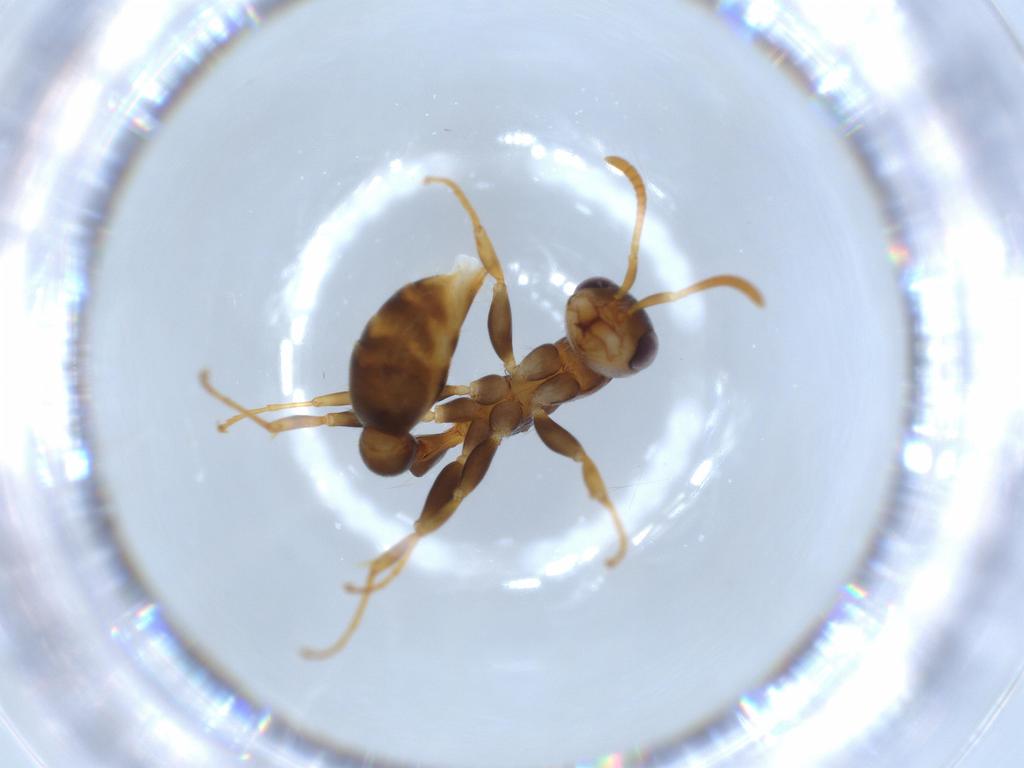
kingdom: Animalia
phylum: Arthropoda
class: Insecta
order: Hymenoptera
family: Formicidae
